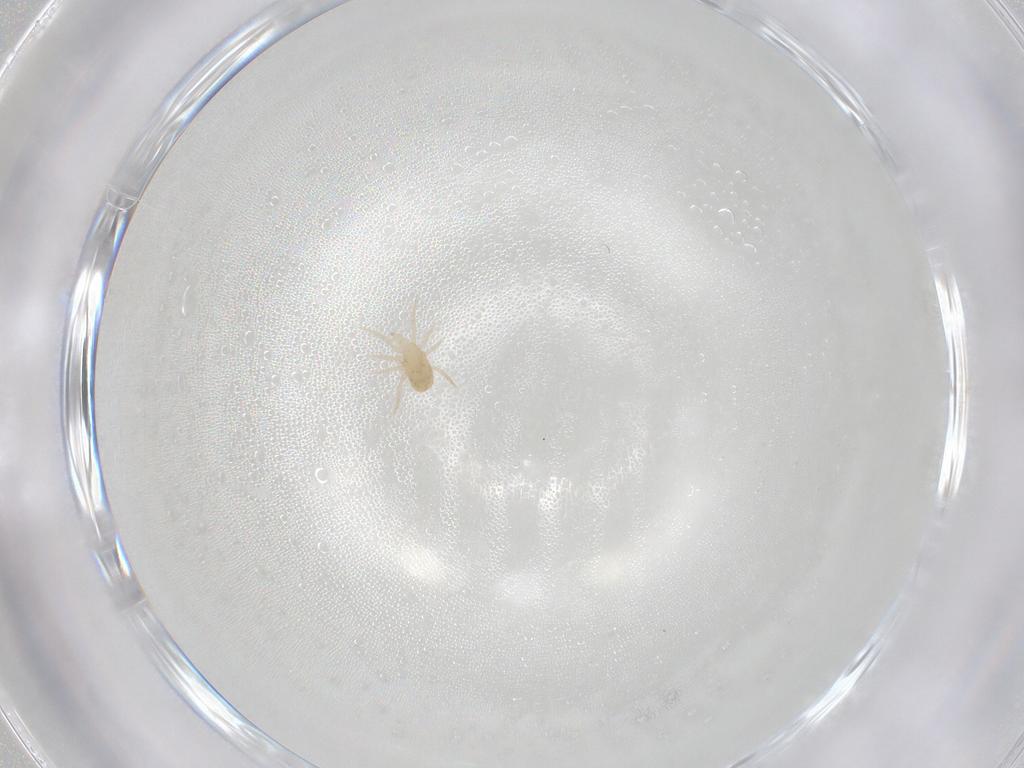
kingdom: Animalia
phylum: Arthropoda
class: Arachnida
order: Mesostigmata
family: Blattisociidae
